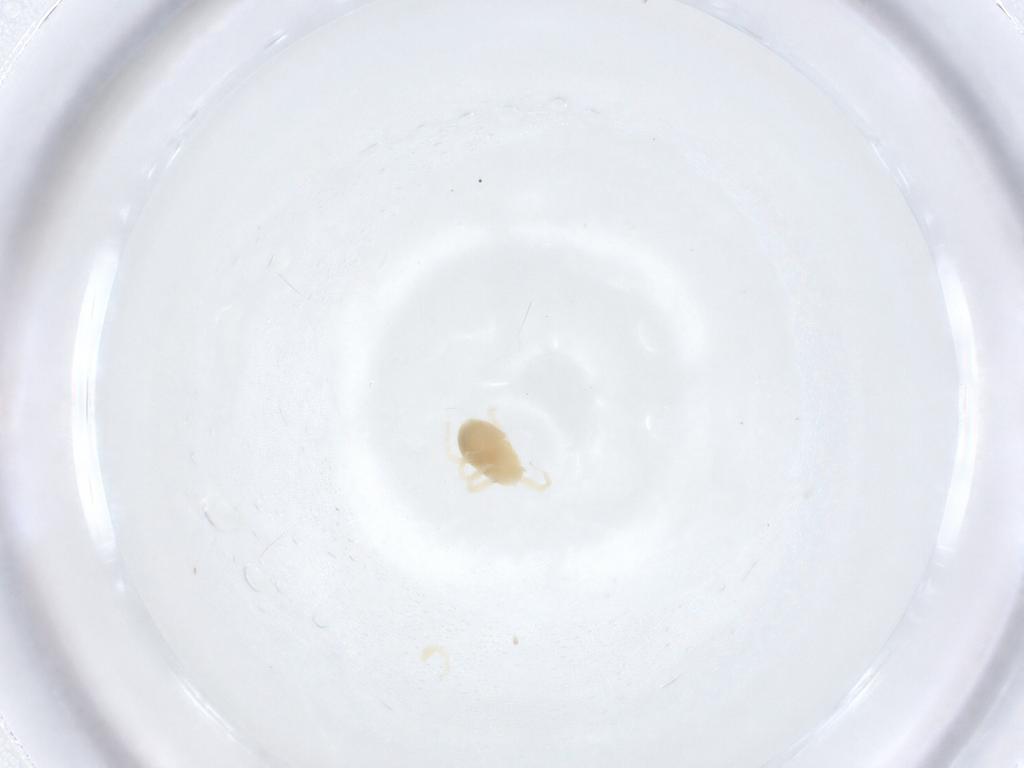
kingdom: Animalia
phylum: Arthropoda
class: Arachnida
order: Trombidiformes
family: Anystidae
